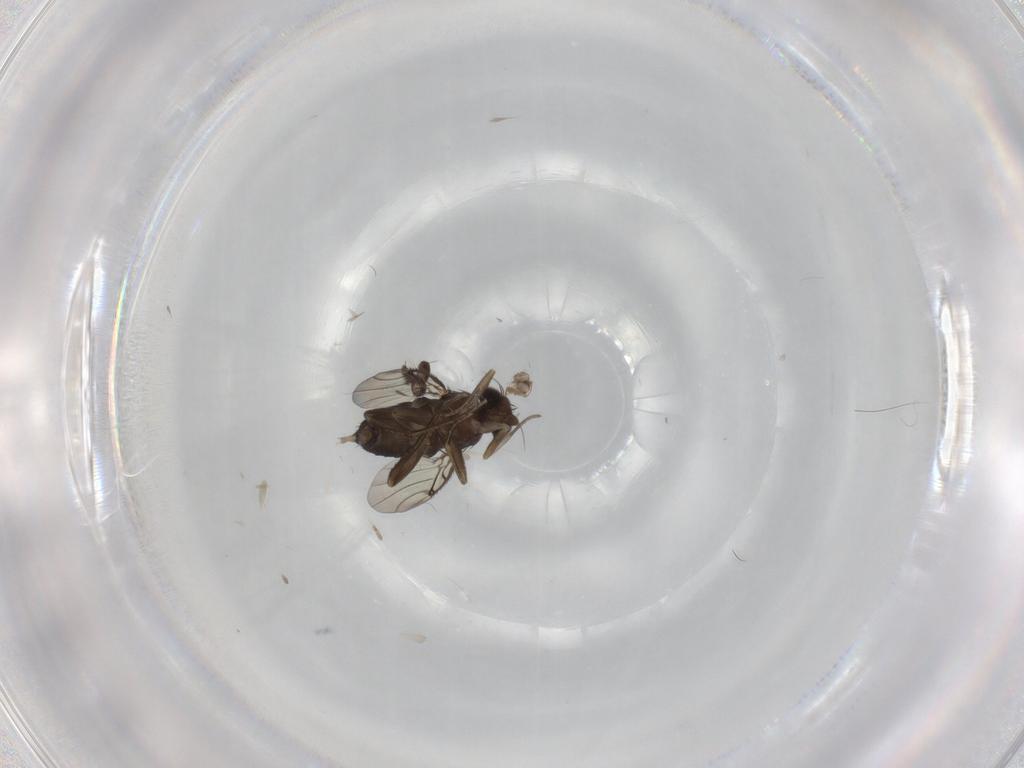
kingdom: Animalia
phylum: Arthropoda
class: Insecta
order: Diptera
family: Phoridae
